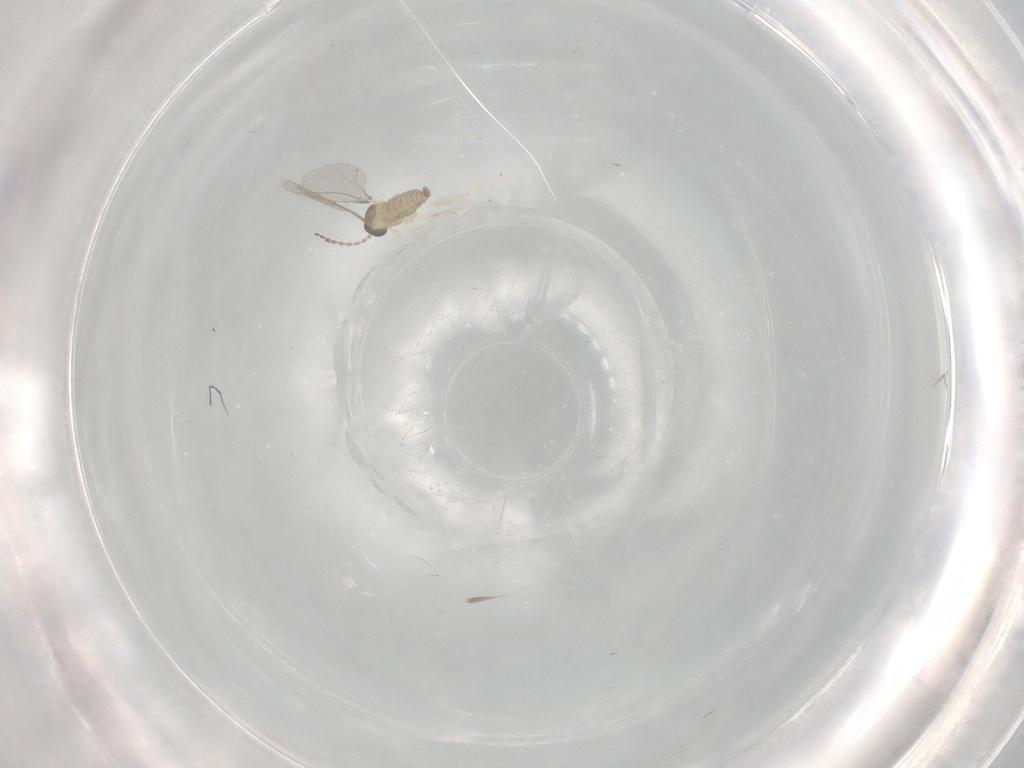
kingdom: Animalia
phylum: Arthropoda
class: Insecta
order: Diptera
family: Cecidomyiidae
